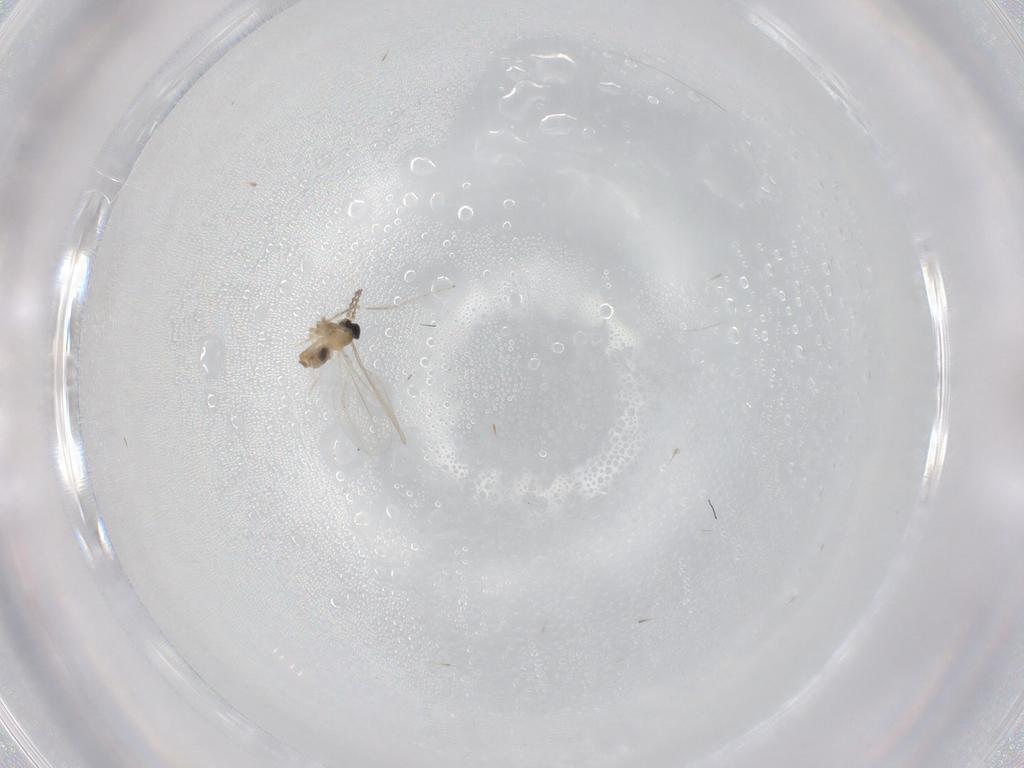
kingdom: Animalia
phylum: Arthropoda
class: Insecta
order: Diptera
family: Cecidomyiidae
